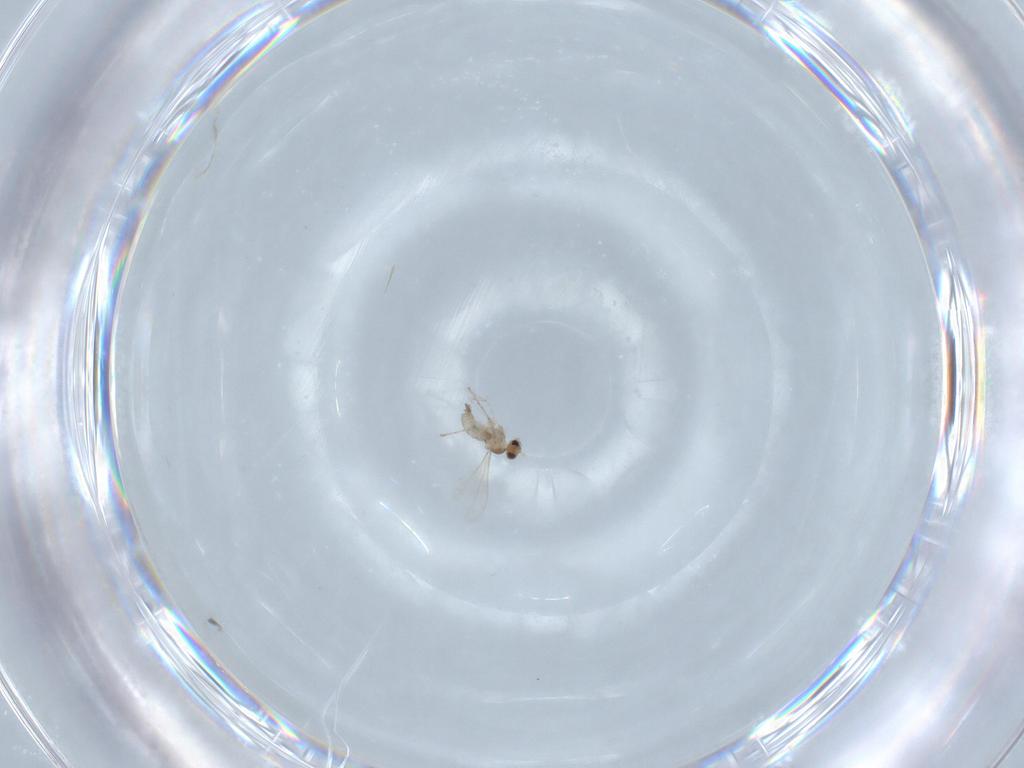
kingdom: Animalia
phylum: Arthropoda
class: Insecta
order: Diptera
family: Cecidomyiidae
